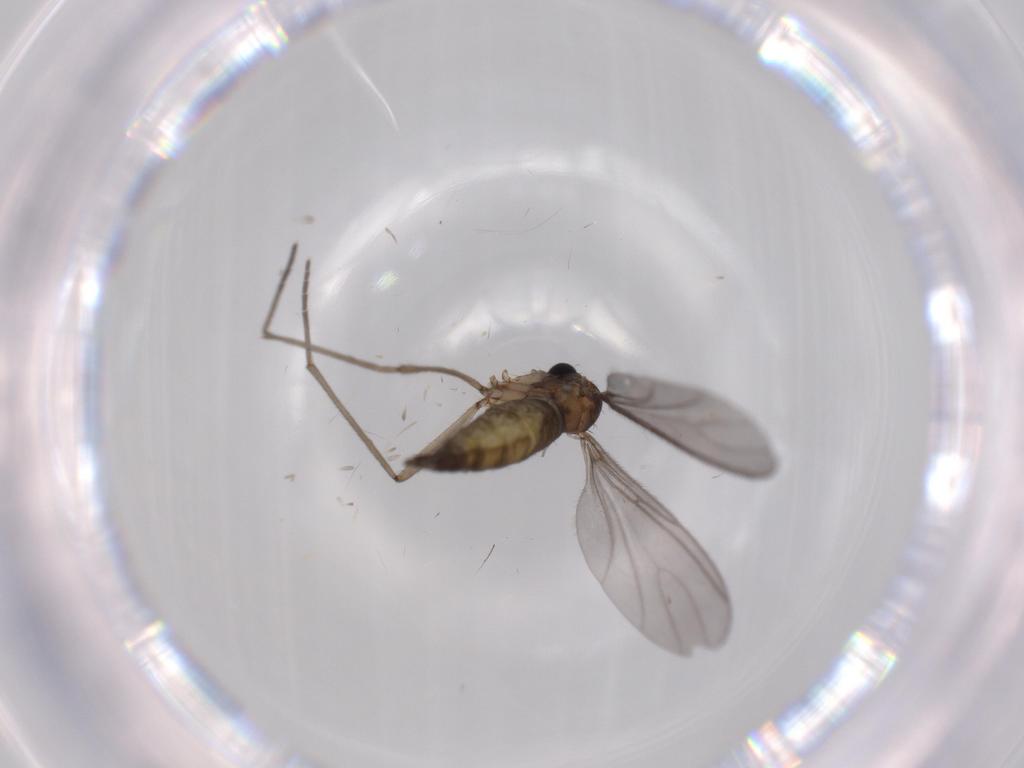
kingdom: Animalia
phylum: Arthropoda
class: Insecta
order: Diptera
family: Sciaridae
